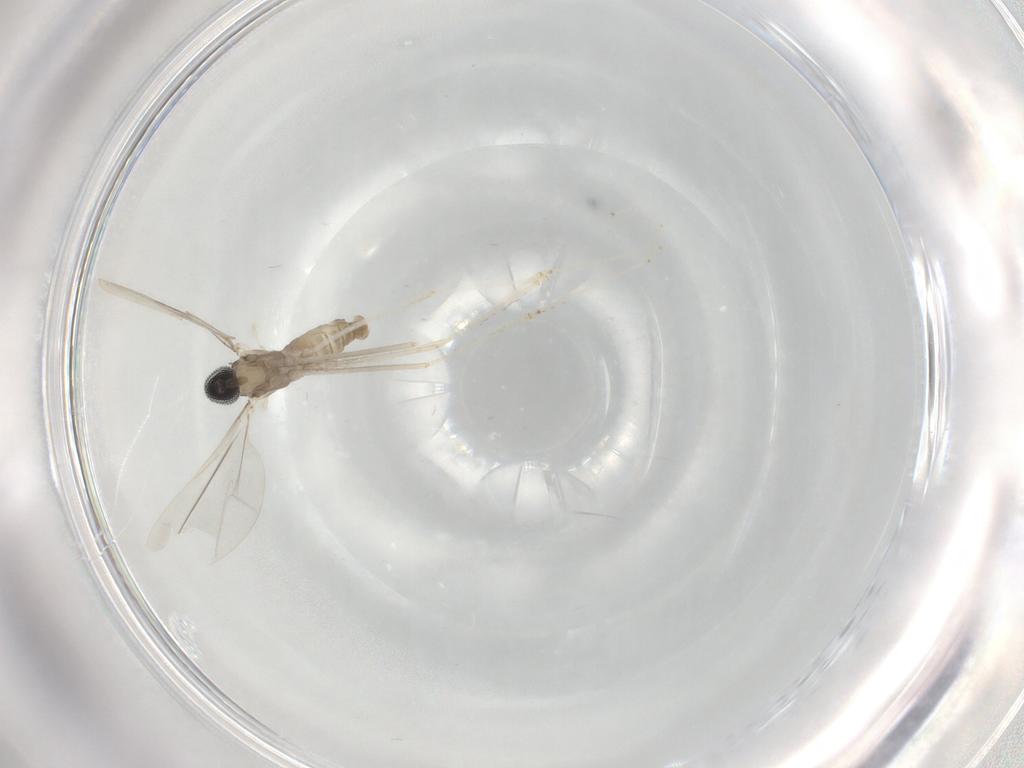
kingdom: Animalia
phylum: Arthropoda
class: Insecta
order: Diptera
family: Cecidomyiidae
